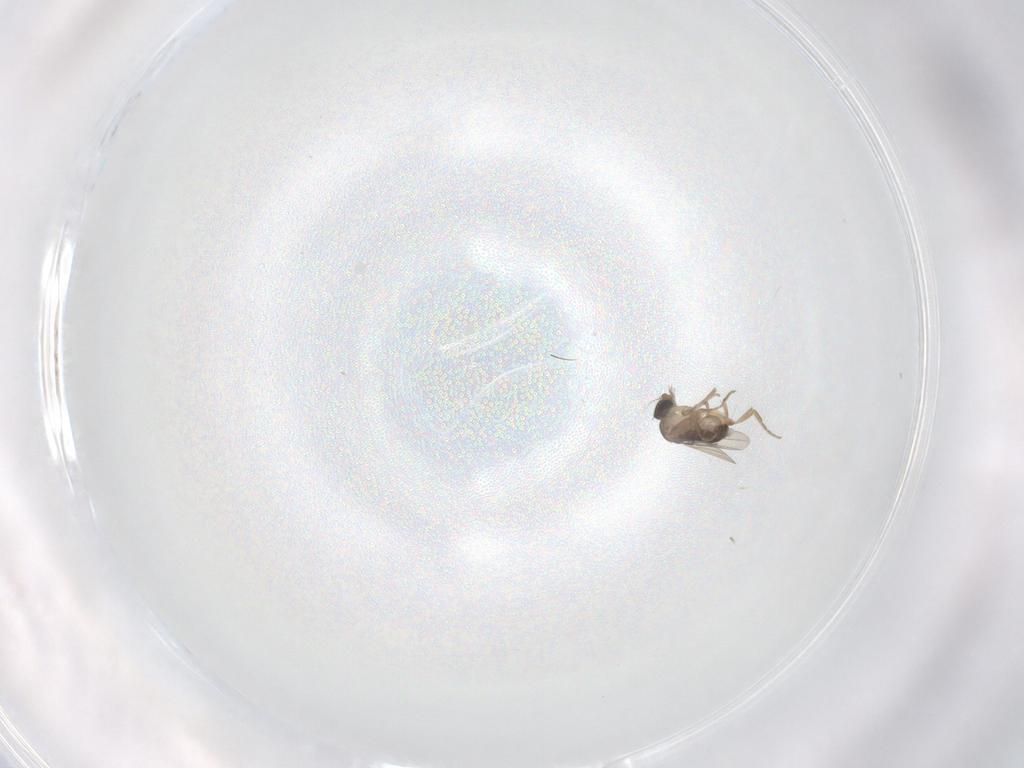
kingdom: Animalia
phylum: Arthropoda
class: Insecta
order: Diptera
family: Phoridae
